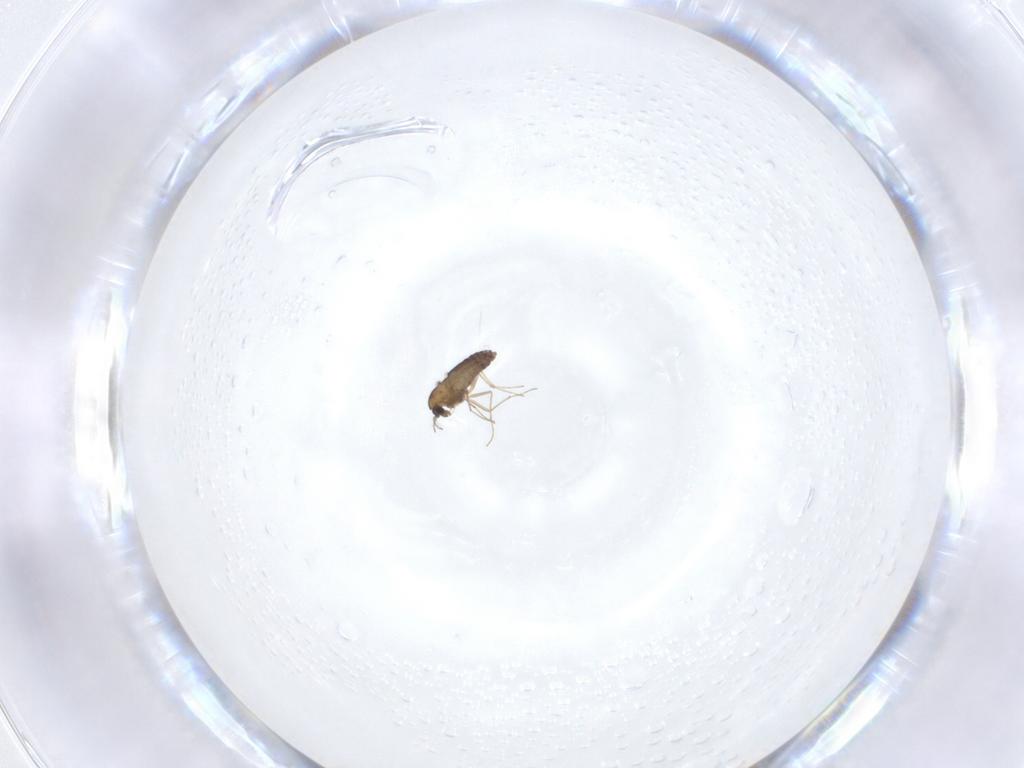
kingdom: Animalia
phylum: Arthropoda
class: Insecta
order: Diptera
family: Chironomidae
